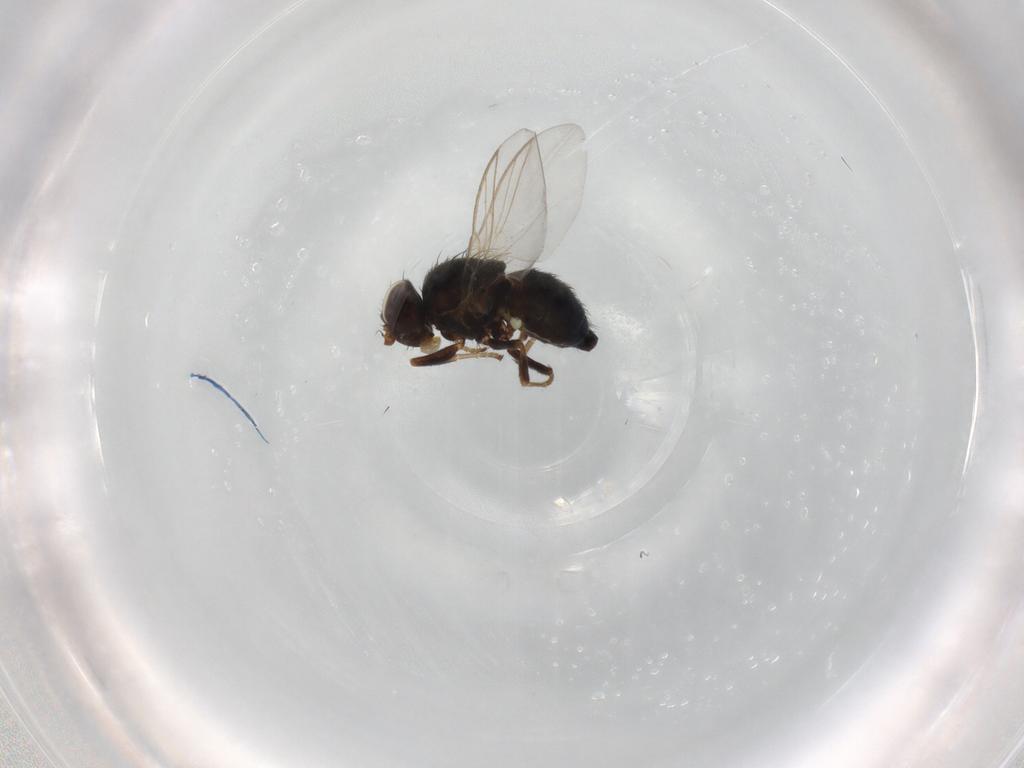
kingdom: Animalia
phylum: Arthropoda
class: Insecta
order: Diptera
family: Agromyzidae
